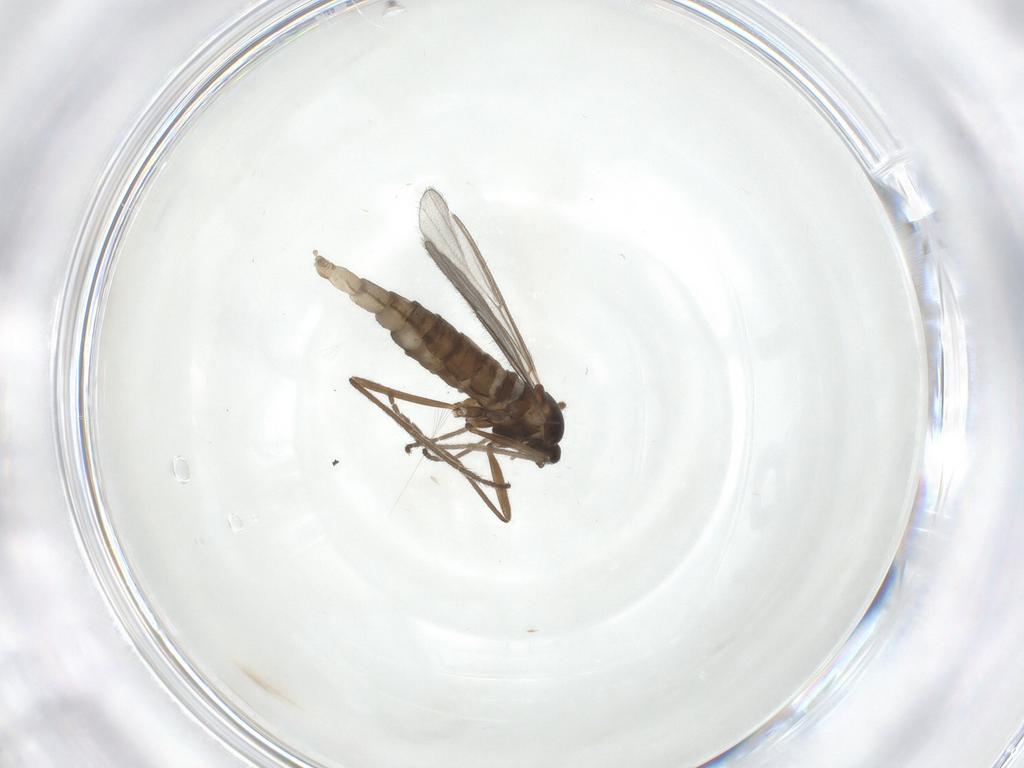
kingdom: Animalia
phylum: Arthropoda
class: Insecta
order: Diptera
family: Cecidomyiidae
